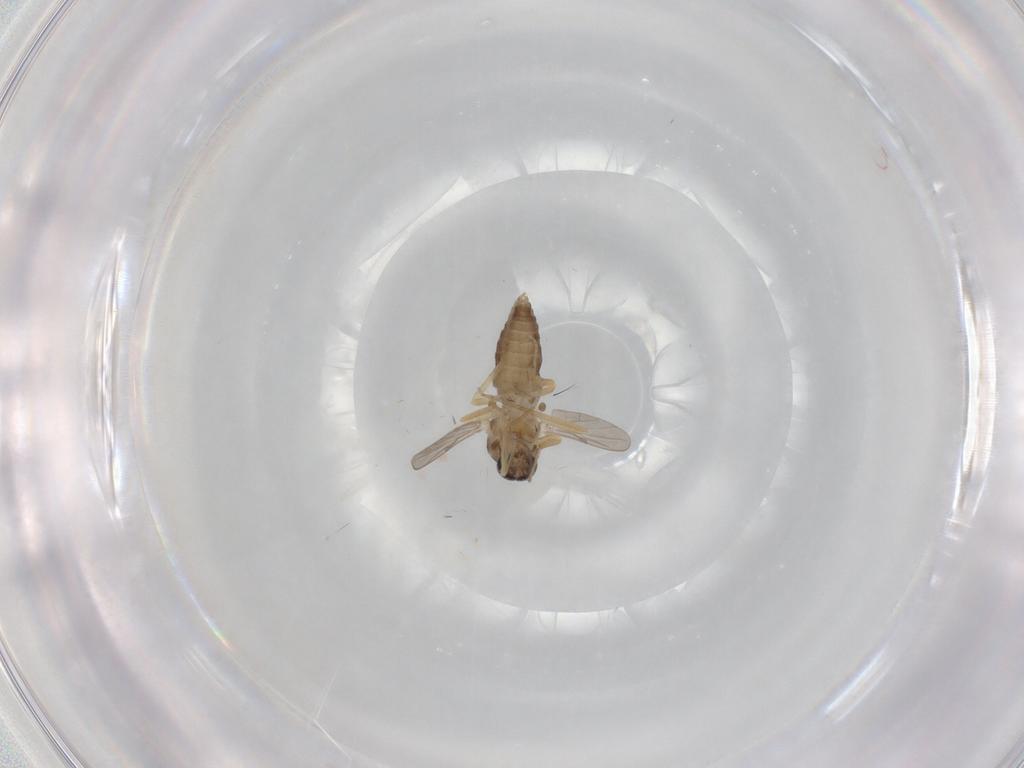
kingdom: Animalia
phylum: Arthropoda
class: Insecta
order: Diptera
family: Ceratopogonidae
